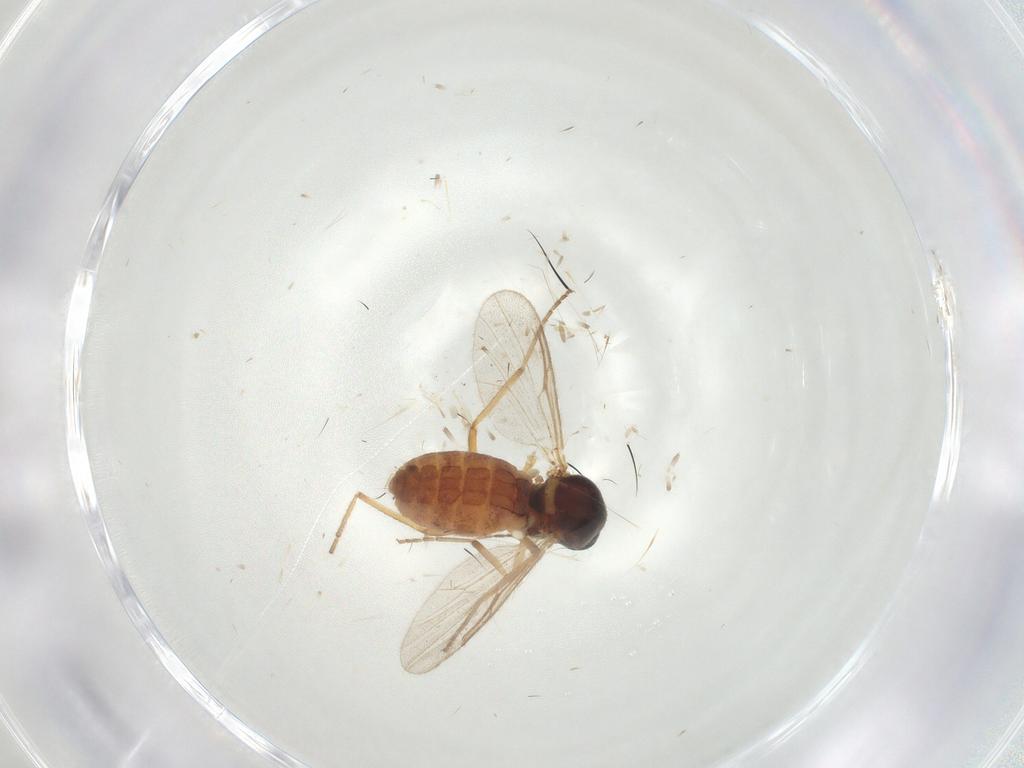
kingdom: Animalia
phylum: Arthropoda
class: Insecta
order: Diptera
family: Ceratopogonidae
